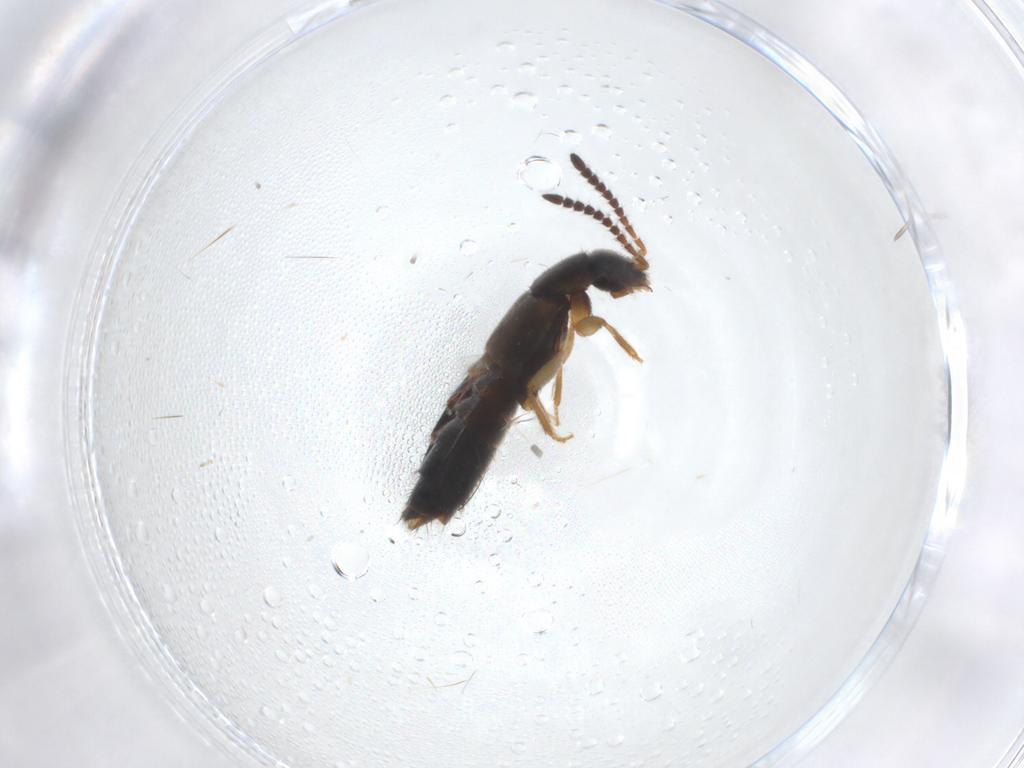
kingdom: Animalia
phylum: Arthropoda
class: Insecta
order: Coleoptera
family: Staphylinidae
